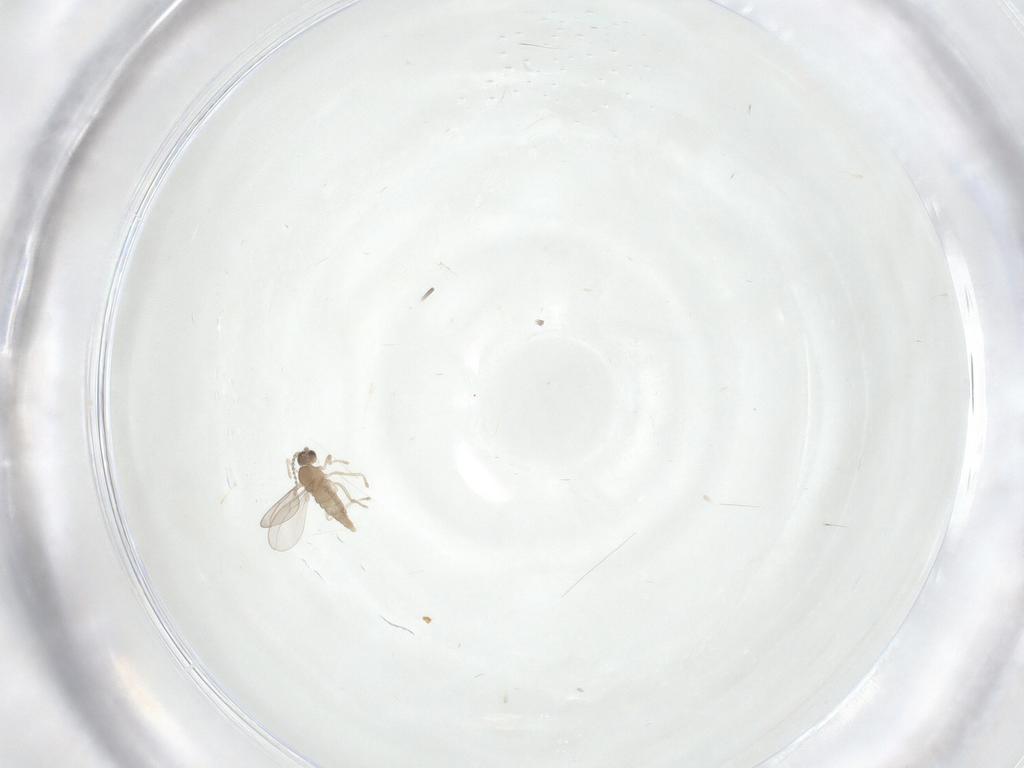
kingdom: Animalia
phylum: Arthropoda
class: Insecta
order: Diptera
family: Cecidomyiidae
